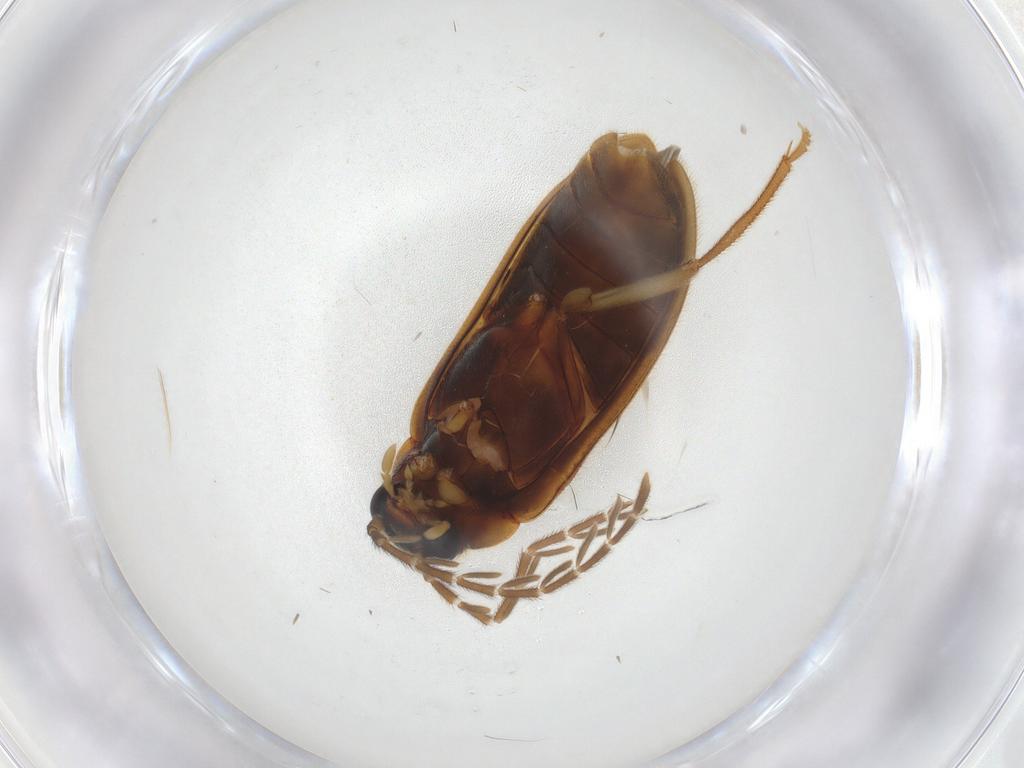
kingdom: Animalia
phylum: Arthropoda
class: Insecta
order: Coleoptera
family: Ptilodactylidae
